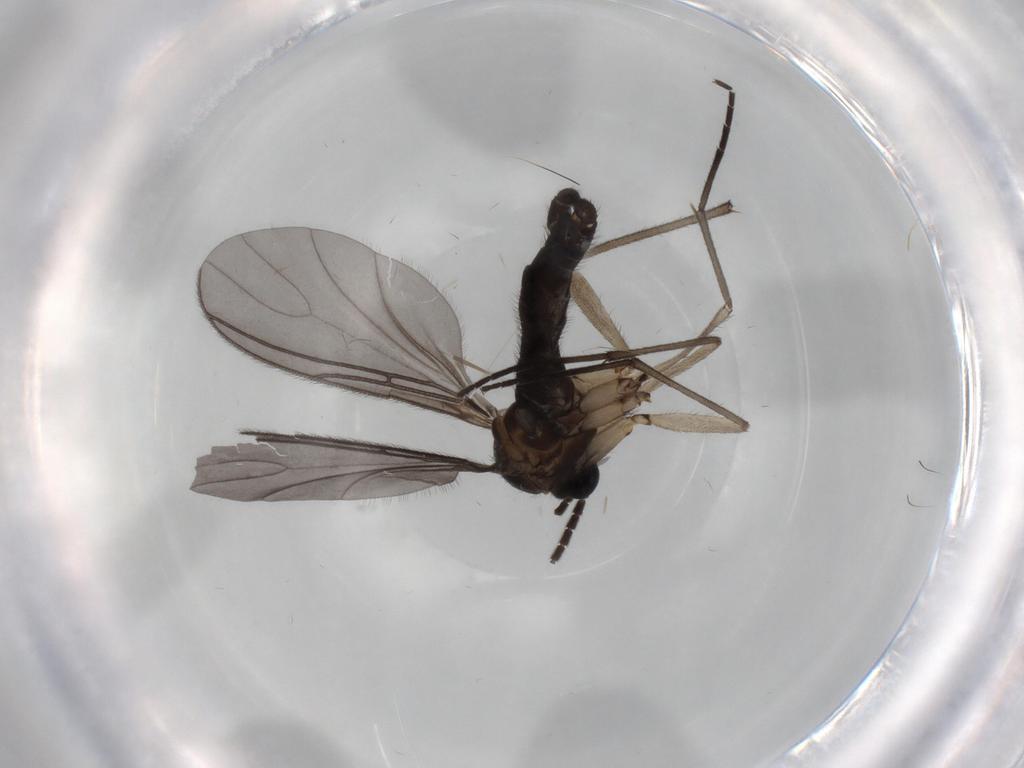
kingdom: Animalia
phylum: Arthropoda
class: Insecta
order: Diptera
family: Sciaridae
